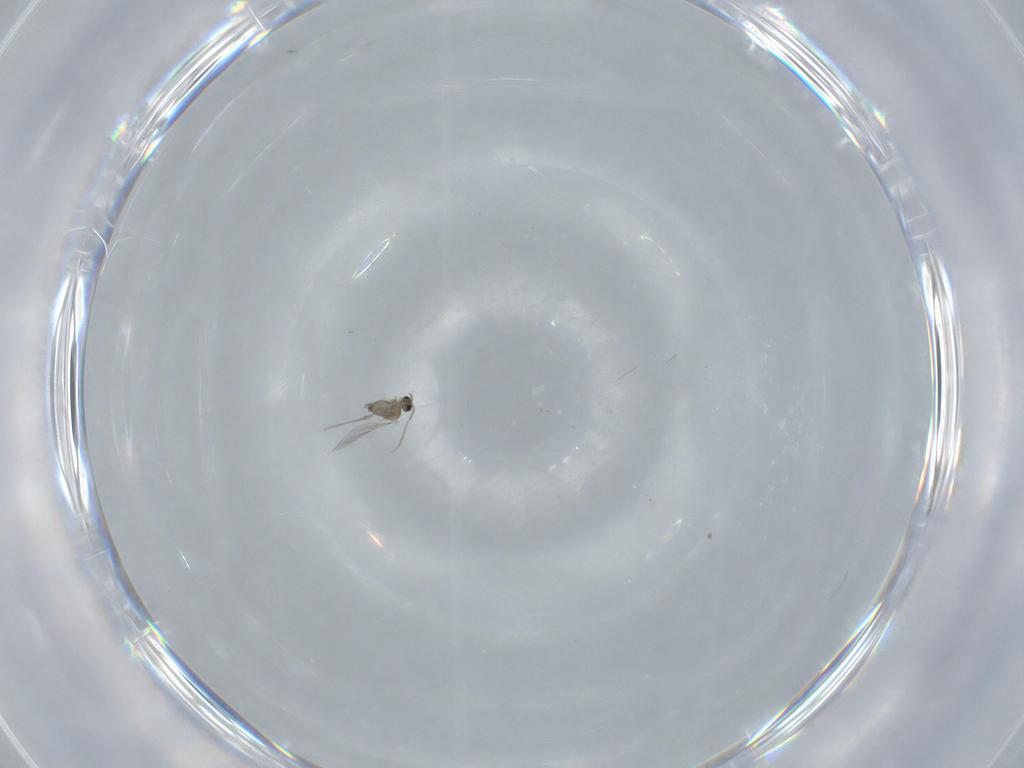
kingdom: Animalia
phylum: Arthropoda
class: Insecta
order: Diptera
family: Cecidomyiidae
